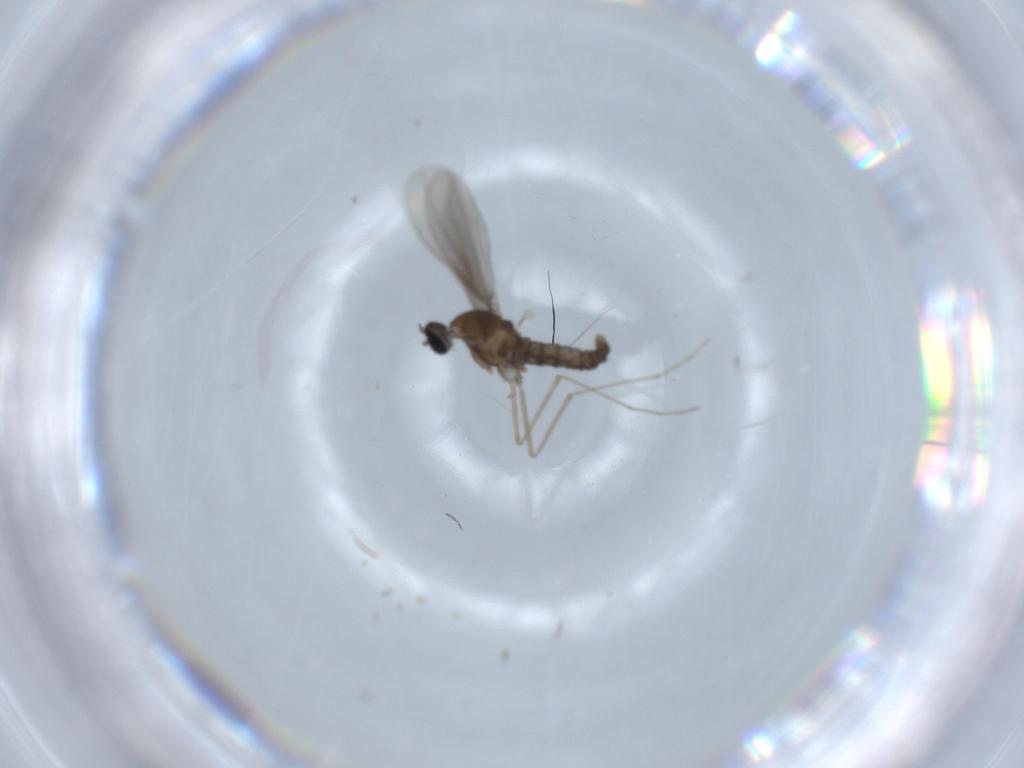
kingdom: Animalia
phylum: Arthropoda
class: Insecta
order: Diptera
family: Cecidomyiidae
